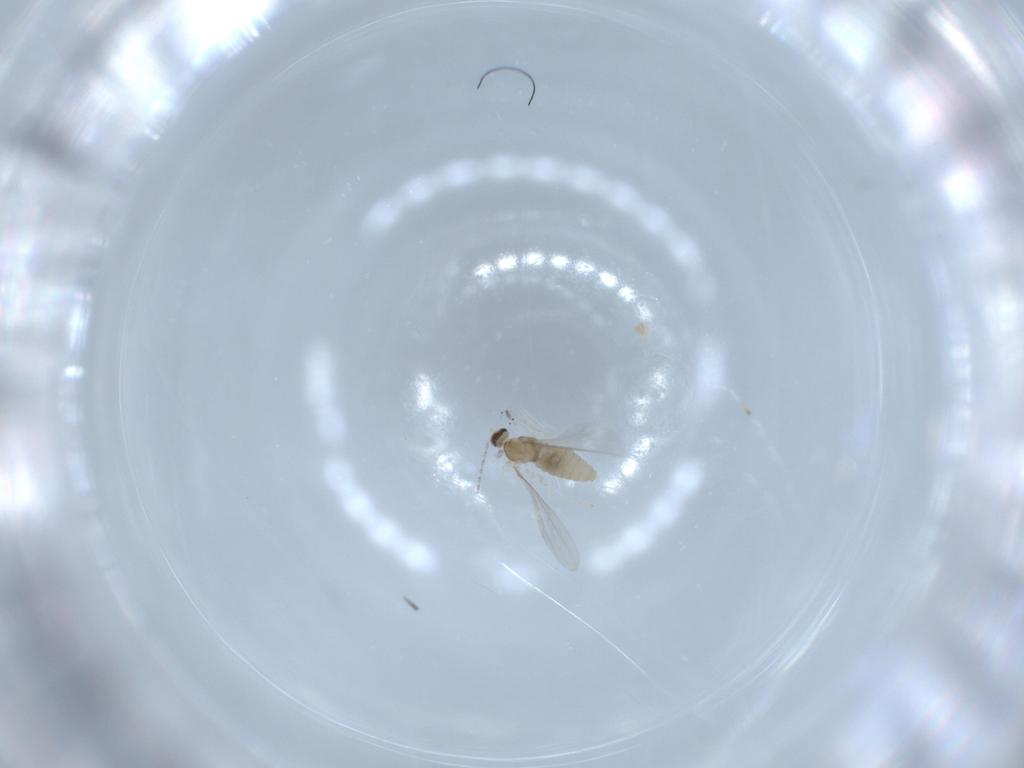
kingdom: Animalia
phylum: Arthropoda
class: Insecta
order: Diptera
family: Cecidomyiidae
